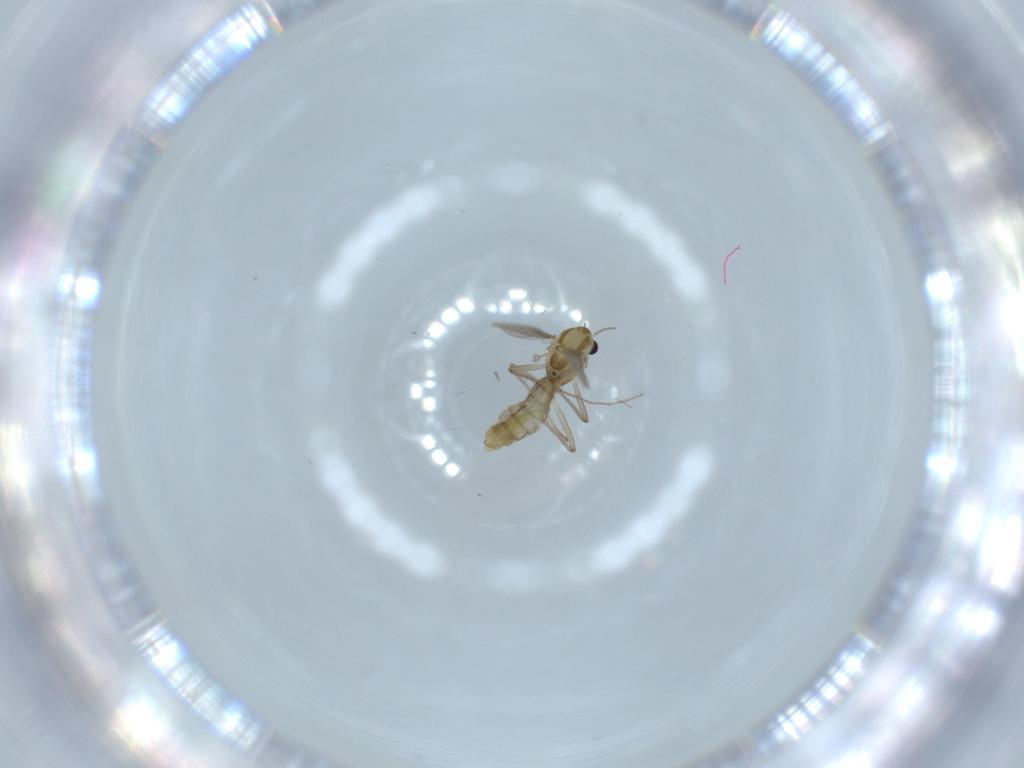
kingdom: Animalia
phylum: Arthropoda
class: Insecta
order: Diptera
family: Chironomidae
